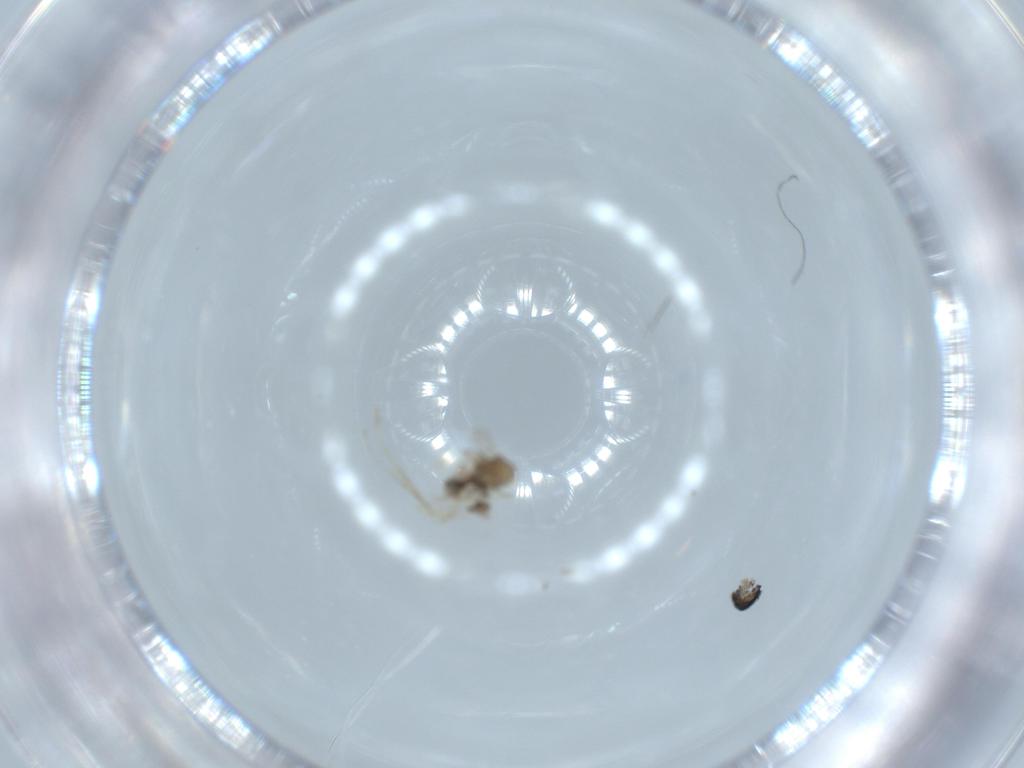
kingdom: Animalia
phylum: Arthropoda
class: Insecta
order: Diptera
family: Cecidomyiidae
